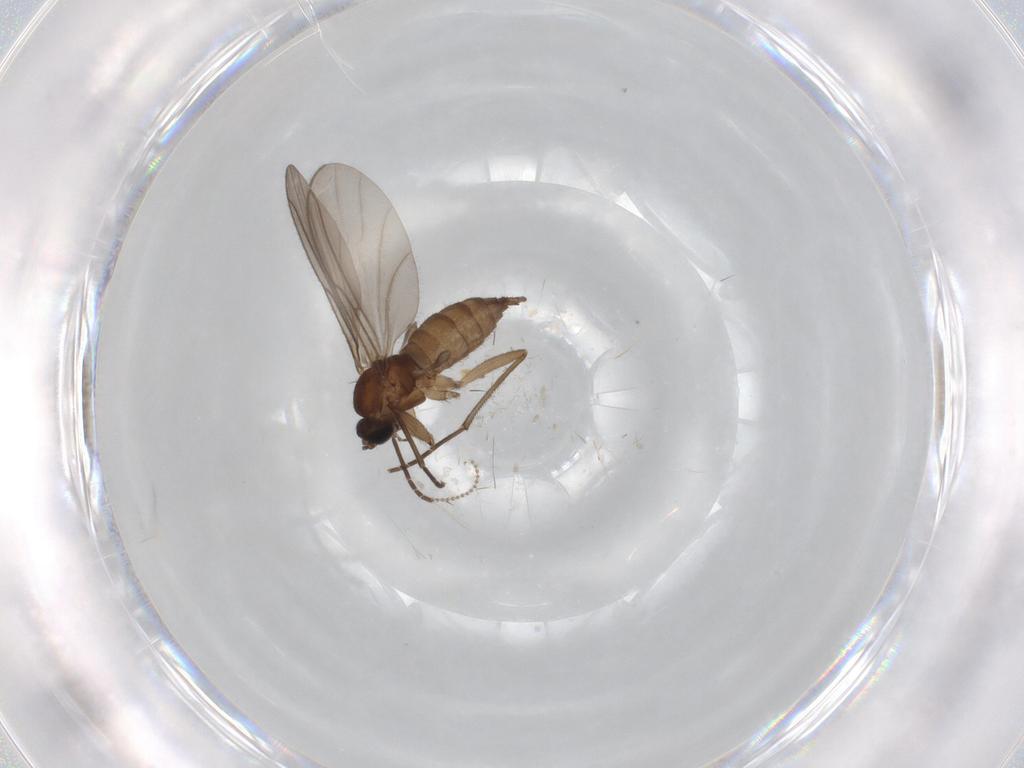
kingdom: Animalia
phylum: Arthropoda
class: Insecta
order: Diptera
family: Sciaridae
